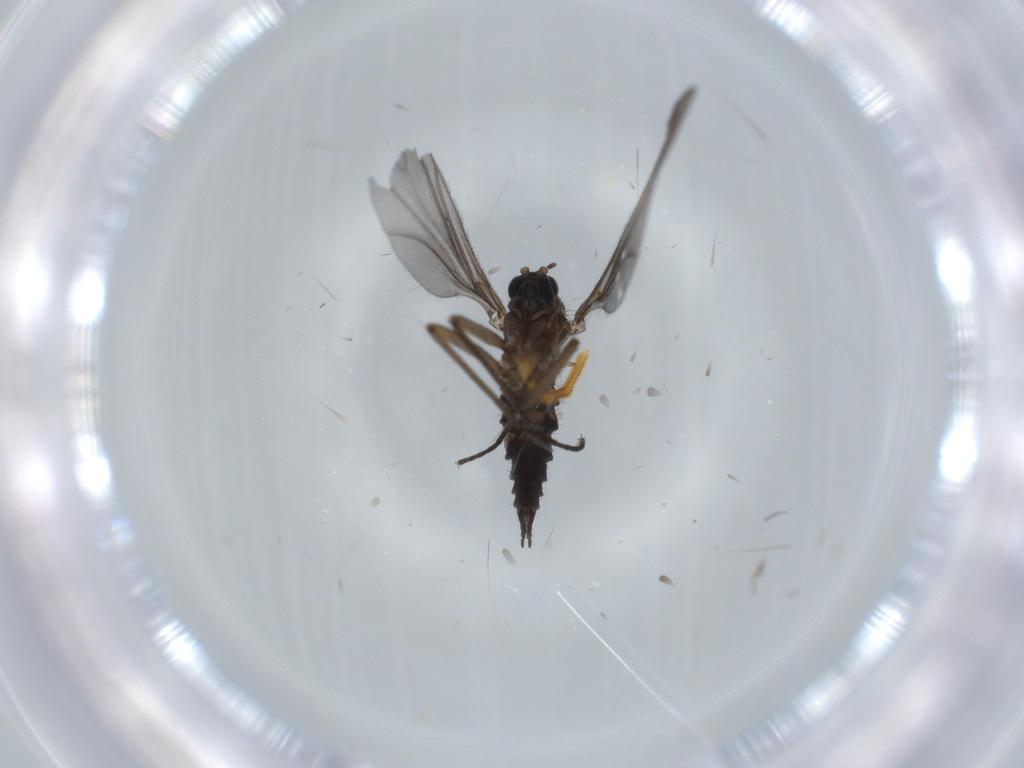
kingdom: Animalia
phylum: Arthropoda
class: Insecta
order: Diptera
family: Sciaridae
